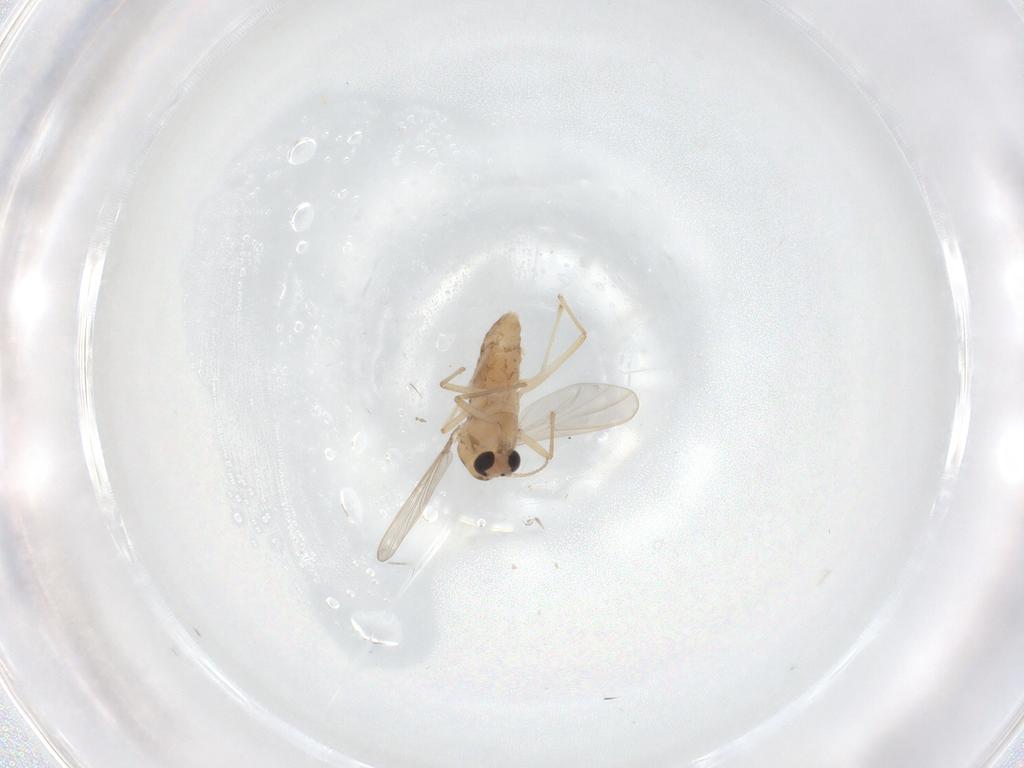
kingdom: Animalia
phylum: Arthropoda
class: Insecta
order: Diptera
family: Chironomidae
